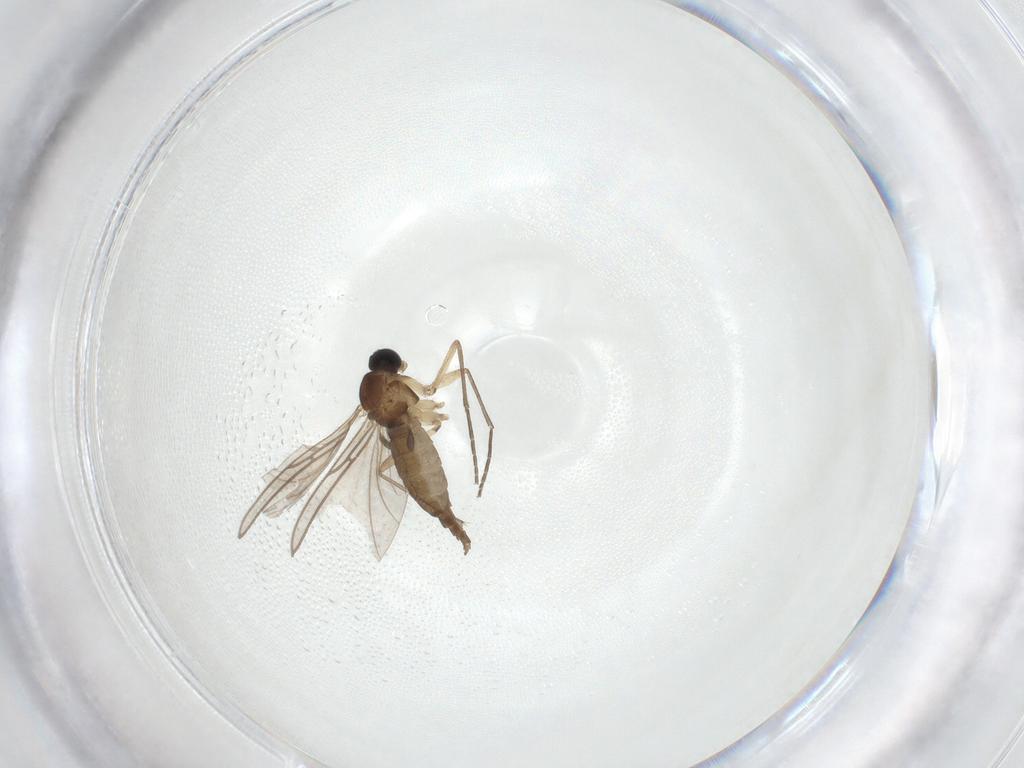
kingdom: Animalia
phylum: Arthropoda
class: Insecta
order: Diptera
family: Sciaridae
